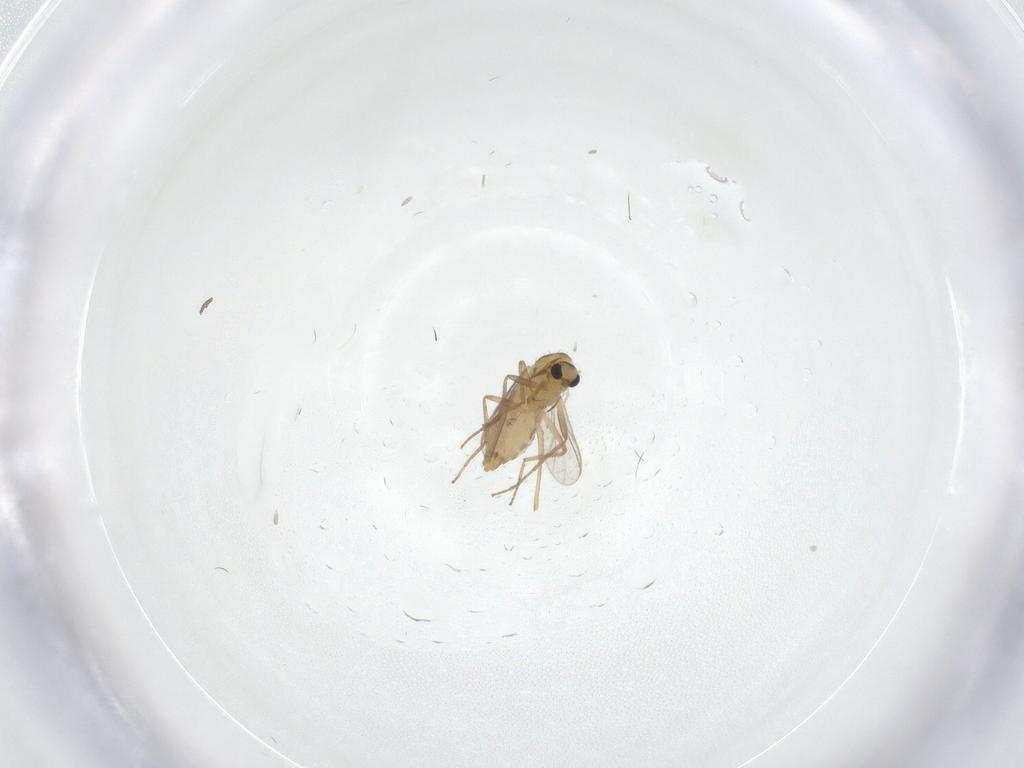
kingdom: Animalia
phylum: Arthropoda
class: Insecta
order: Diptera
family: Chironomidae
